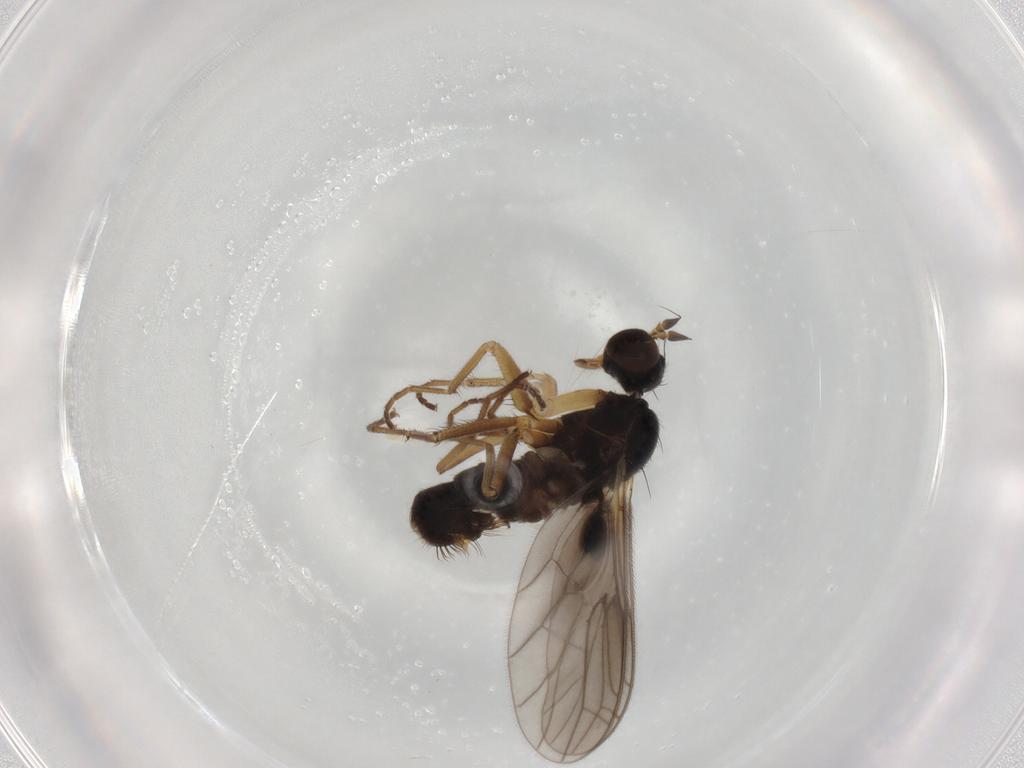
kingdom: Animalia
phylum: Arthropoda
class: Insecta
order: Diptera
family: Empididae
